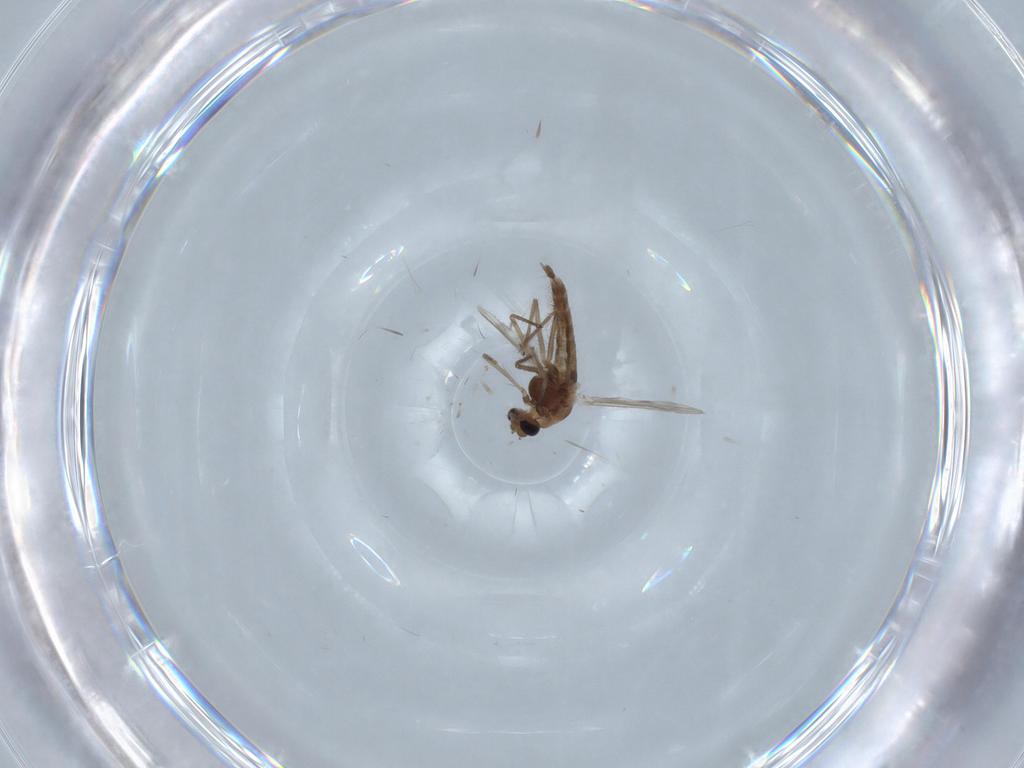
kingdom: Animalia
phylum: Arthropoda
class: Insecta
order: Diptera
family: Chironomidae
